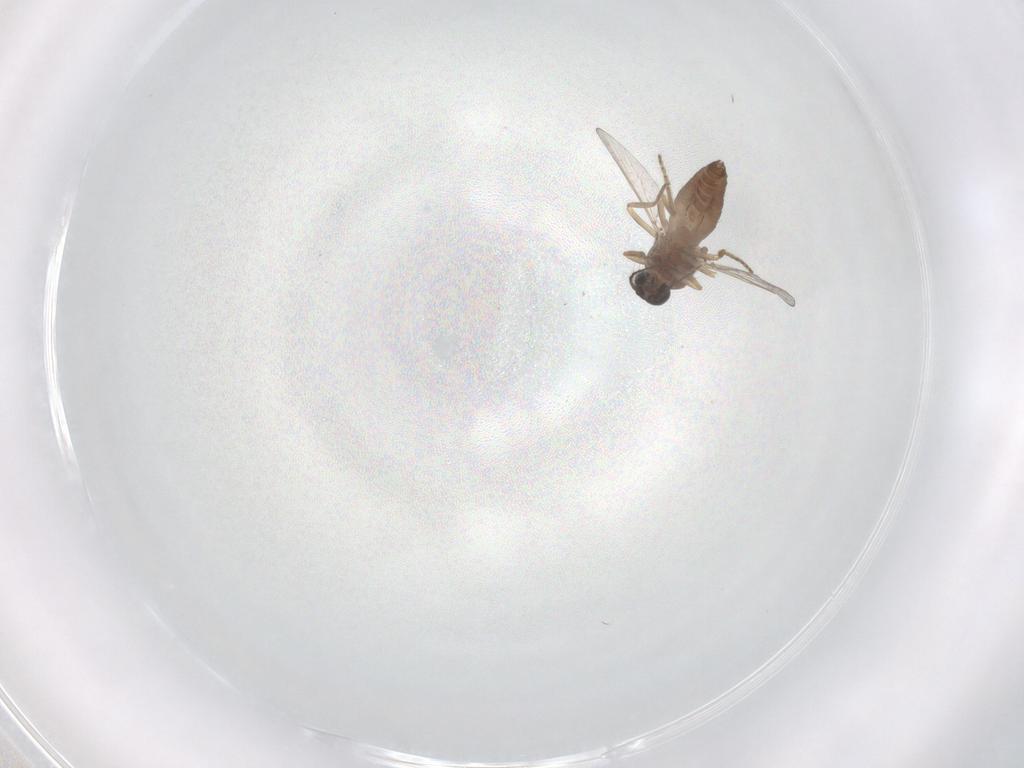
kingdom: Animalia
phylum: Arthropoda
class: Insecta
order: Diptera
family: Ceratopogonidae
